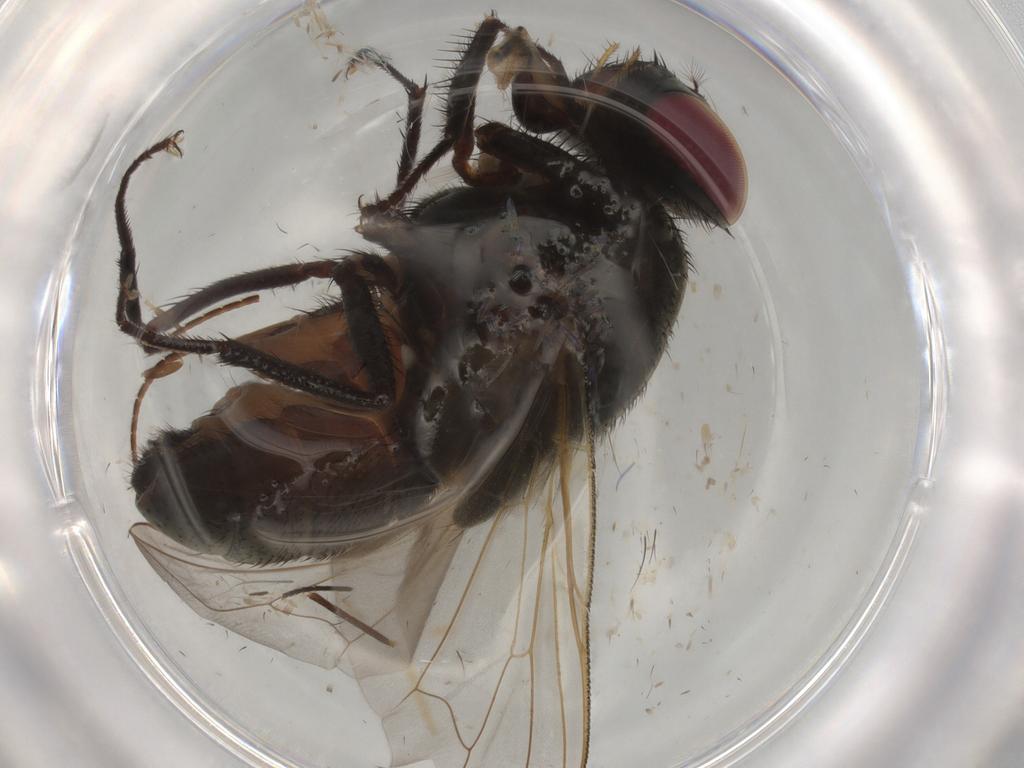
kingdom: Animalia
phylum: Arthropoda
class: Insecta
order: Diptera
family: Muscidae
